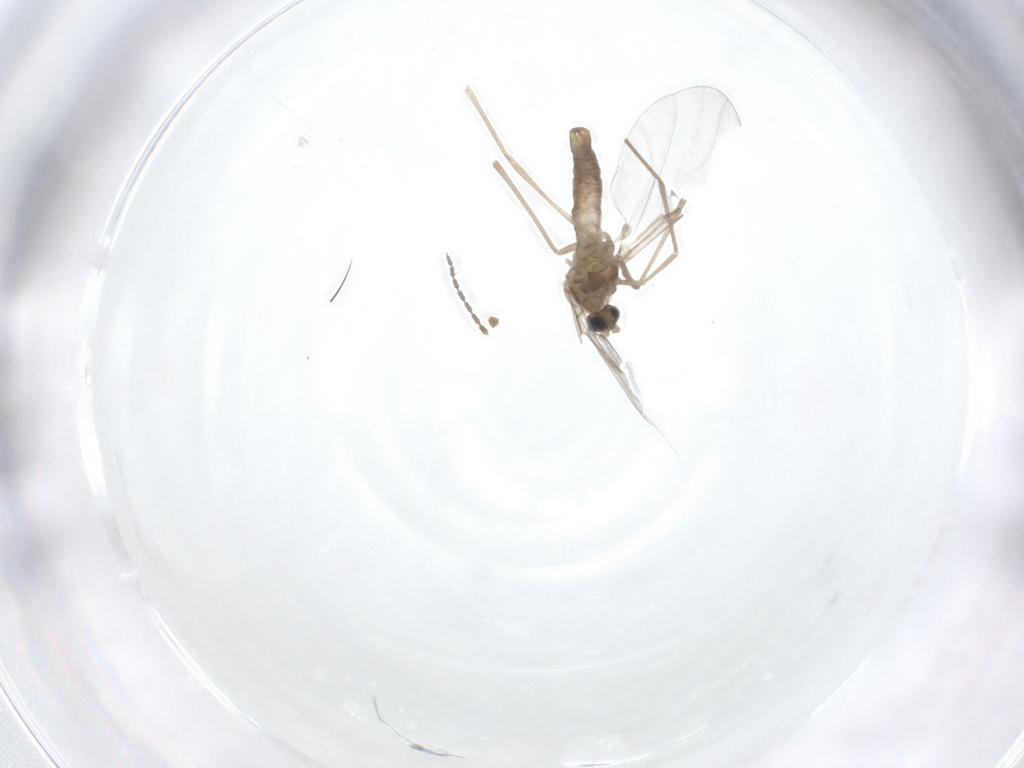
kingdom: Animalia
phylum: Arthropoda
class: Insecta
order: Diptera
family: Cecidomyiidae
